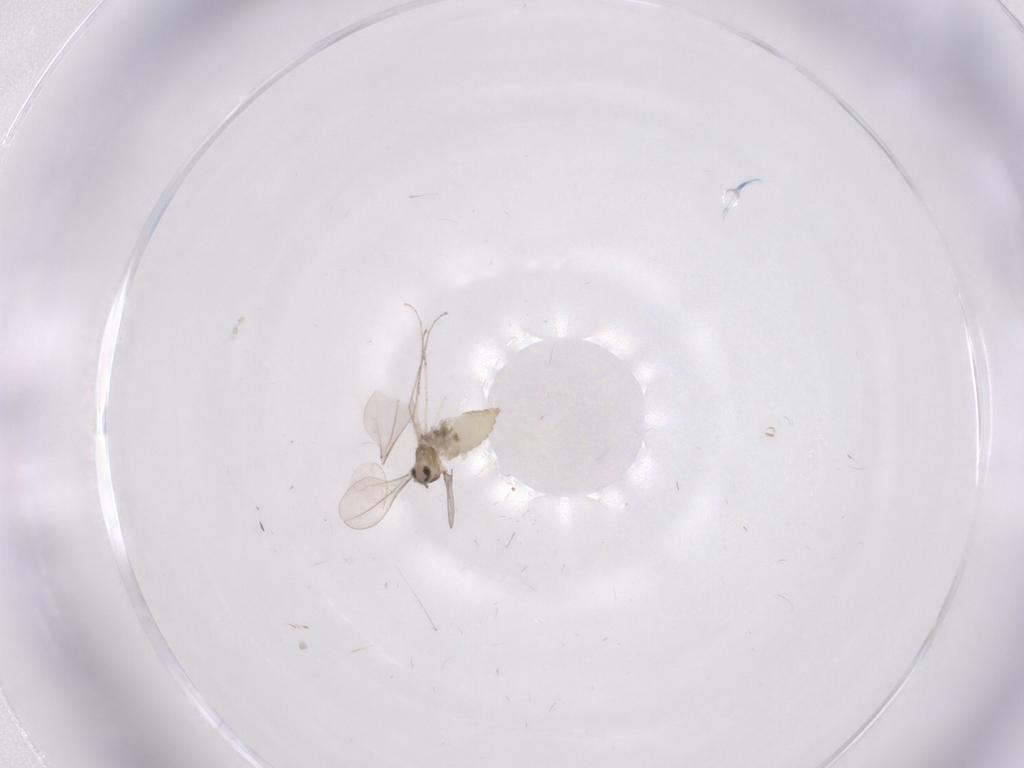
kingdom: Animalia
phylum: Arthropoda
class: Insecta
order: Diptera
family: Cecidomyiidae
